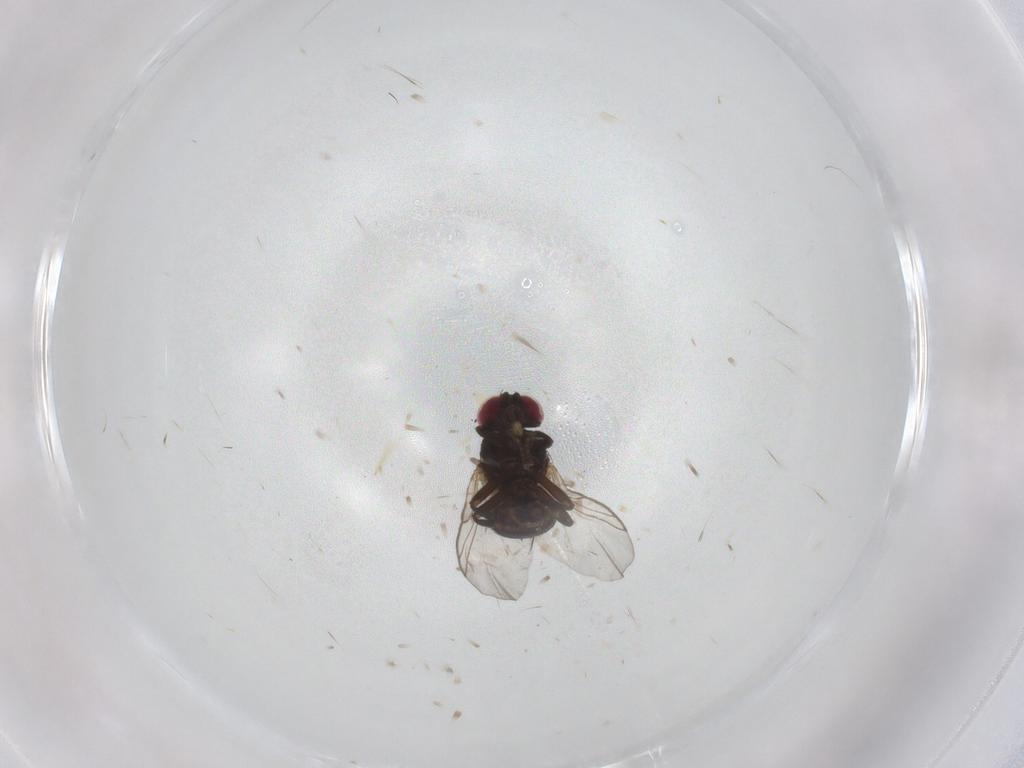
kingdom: Animalia
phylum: Arthropoda
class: Insecta
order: Diptera
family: Agromyzidae
